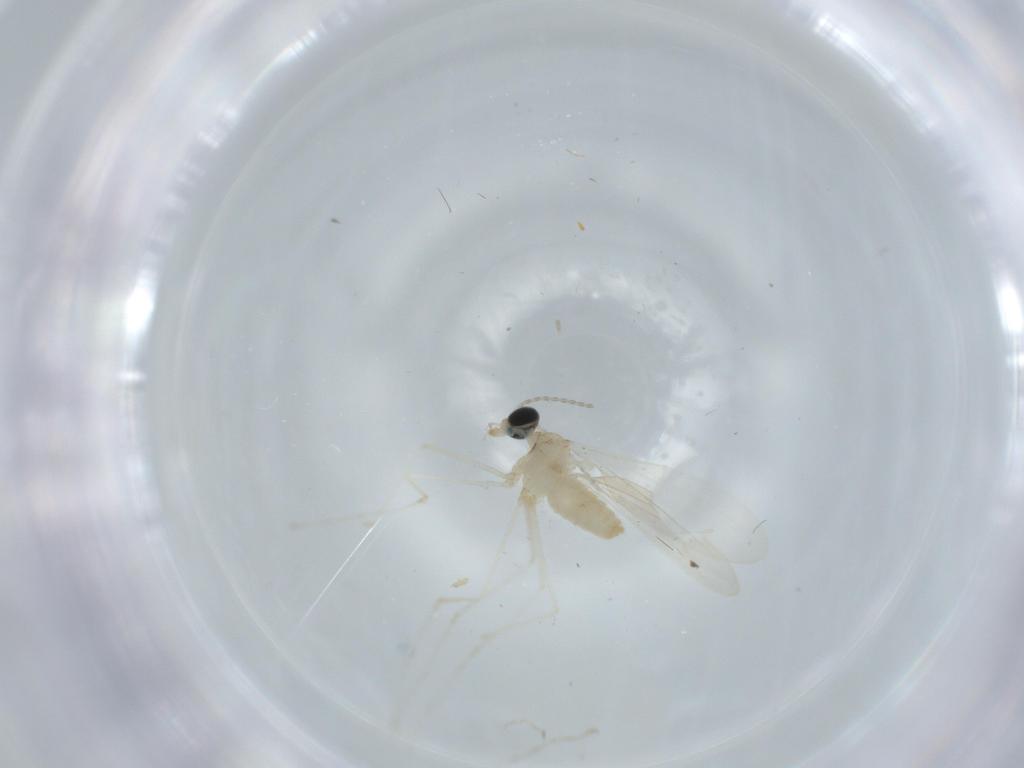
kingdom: Animalia
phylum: Arthropoda
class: Insecta
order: Diptera
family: Cecidomyiidae
